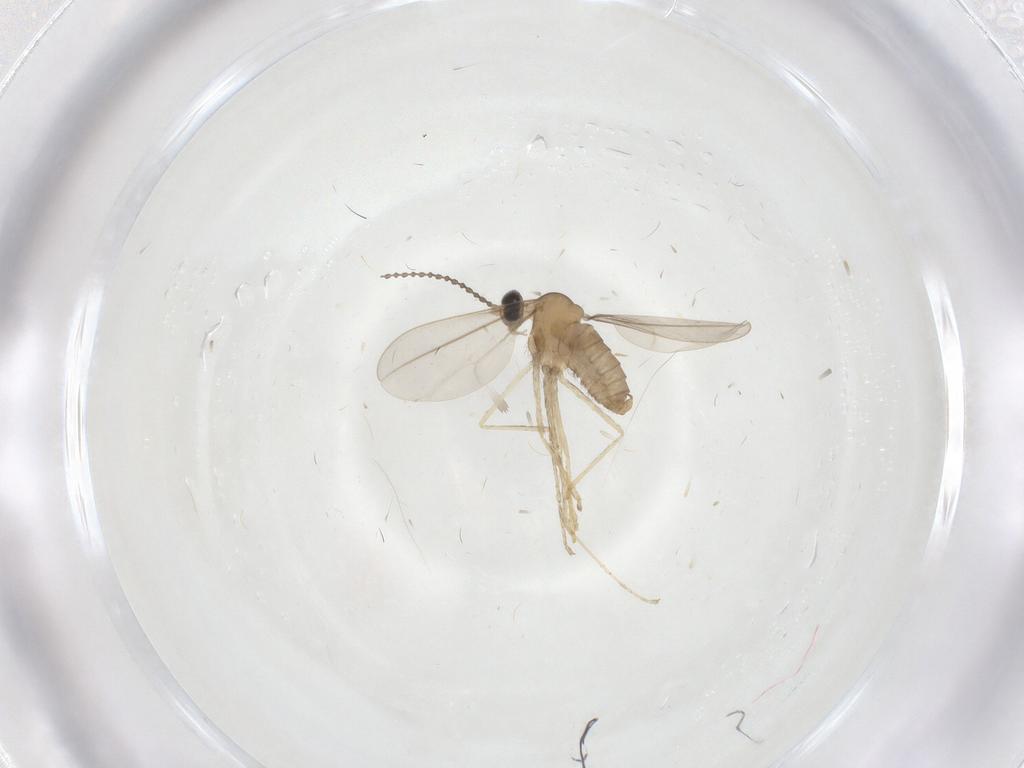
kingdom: Animalia
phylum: Arthropoda
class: Insecta
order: Diptera
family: Cecidomyiidae
